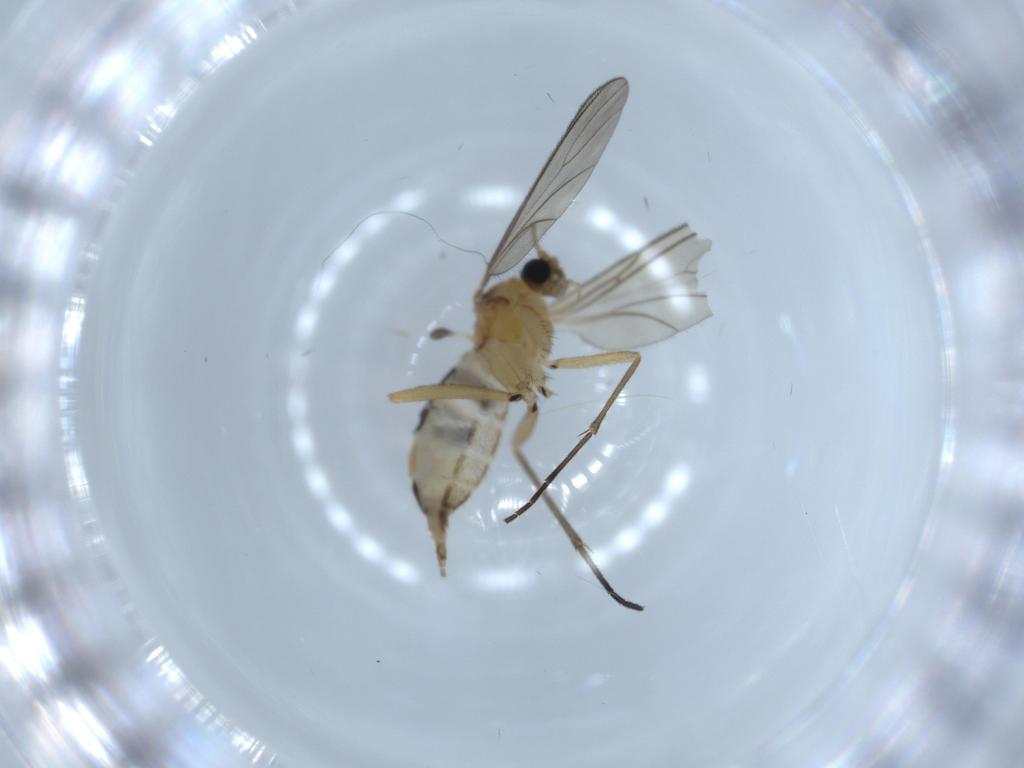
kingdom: Animalia
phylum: Arthropoda
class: Insecta
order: Diptera
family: Sciaridae
